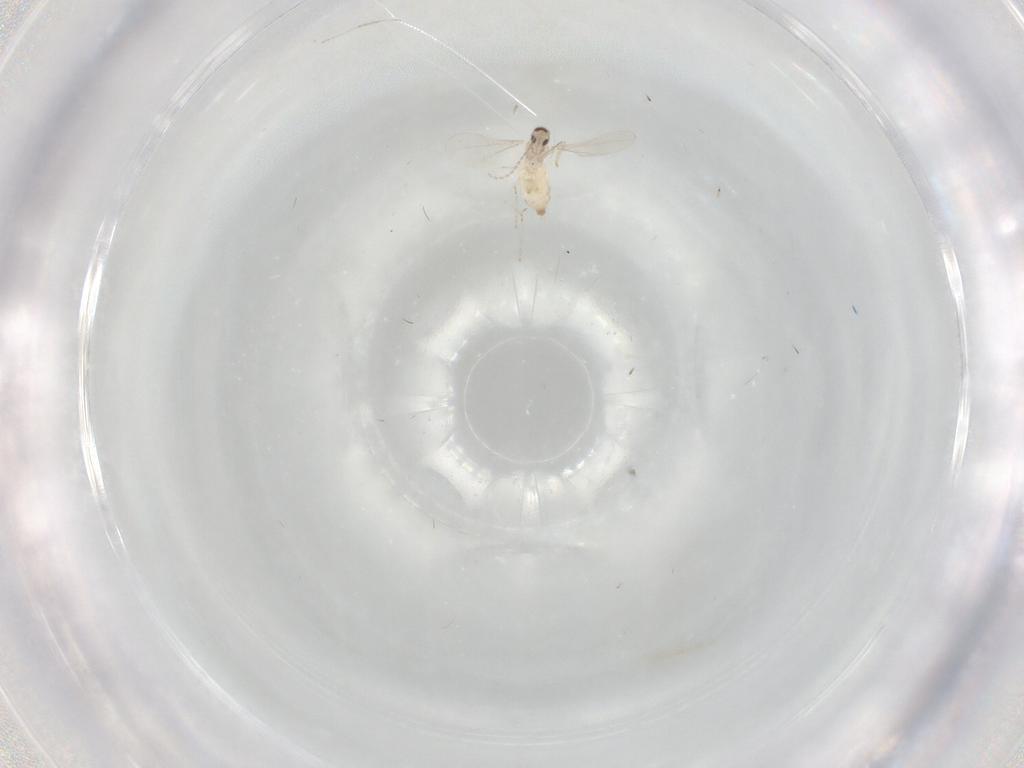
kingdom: Animalia
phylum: Arthropoda
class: Insecta
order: Diptera
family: Cecidomyiidae
